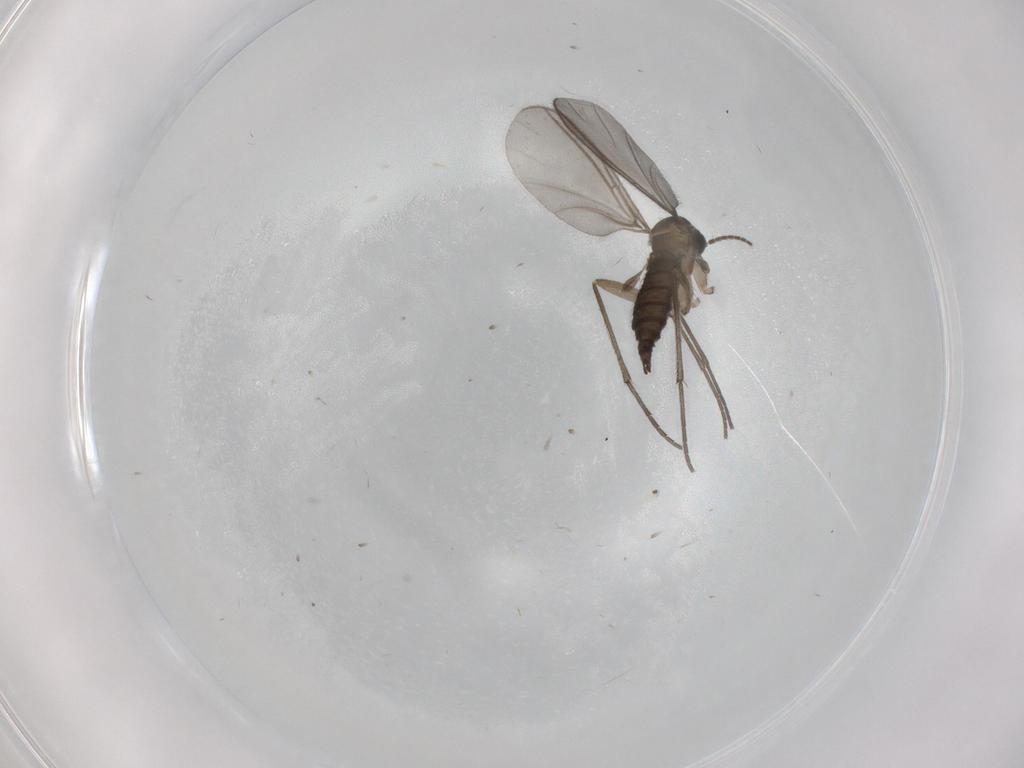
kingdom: Animalia
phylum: Arthropoda
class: Insecta
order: Diptera
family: Sciaridae
